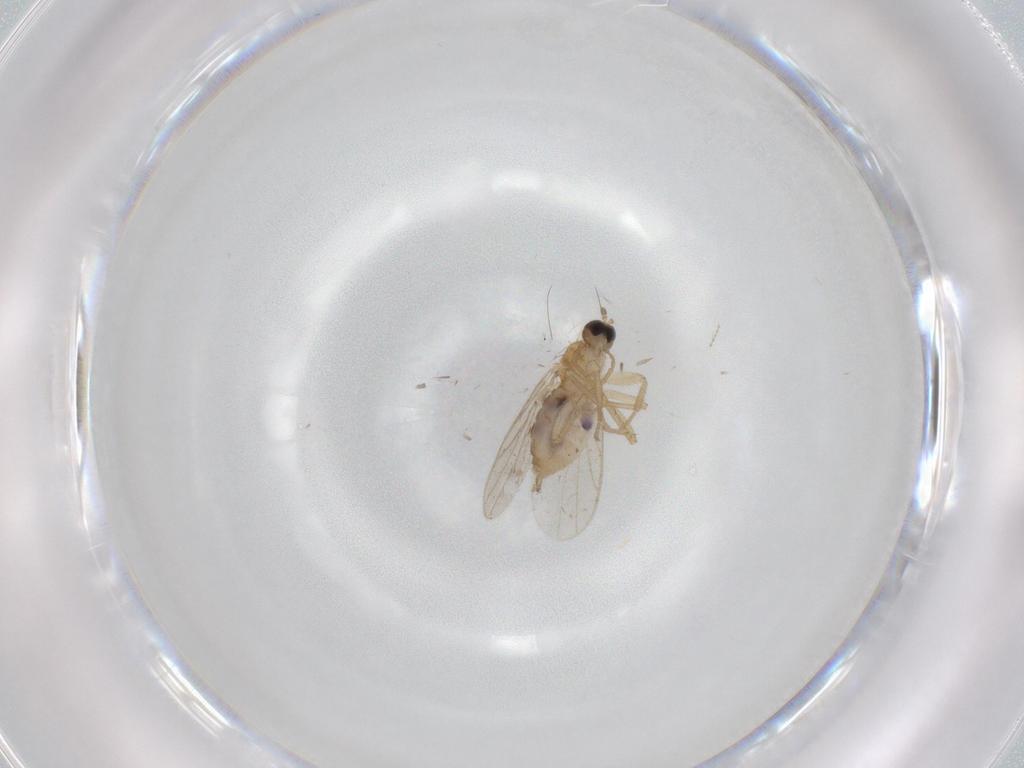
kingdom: Animalia
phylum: Arthropoda
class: Insecta
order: Diptera
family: Cecidomyiidae
